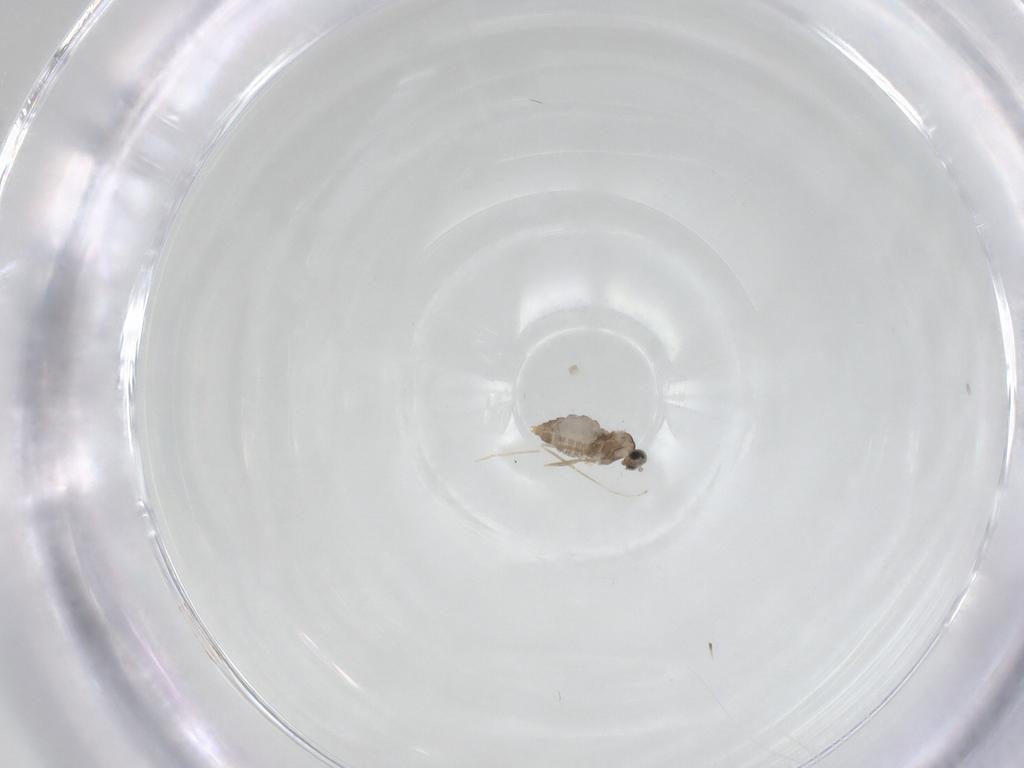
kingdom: Animalia
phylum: Arthropoda
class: Insecta
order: Diptera
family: Cecidomyiidae
